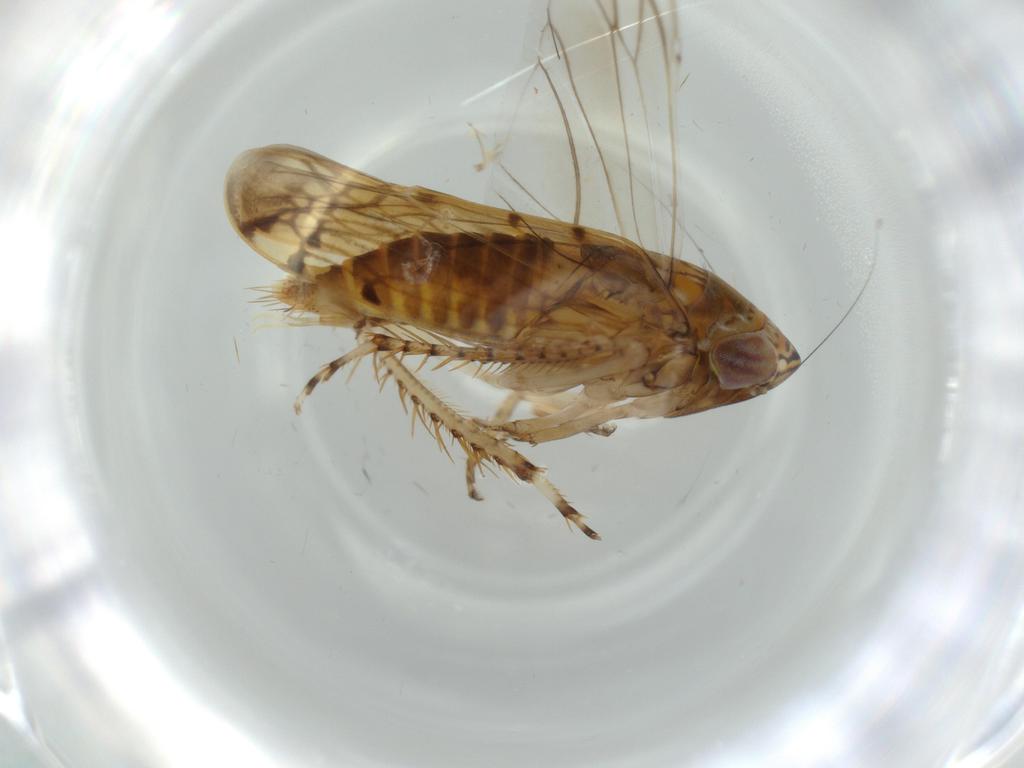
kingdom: Animalia
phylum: Arthropoda
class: Insecta
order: Hemiptera
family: Cicadellidae
